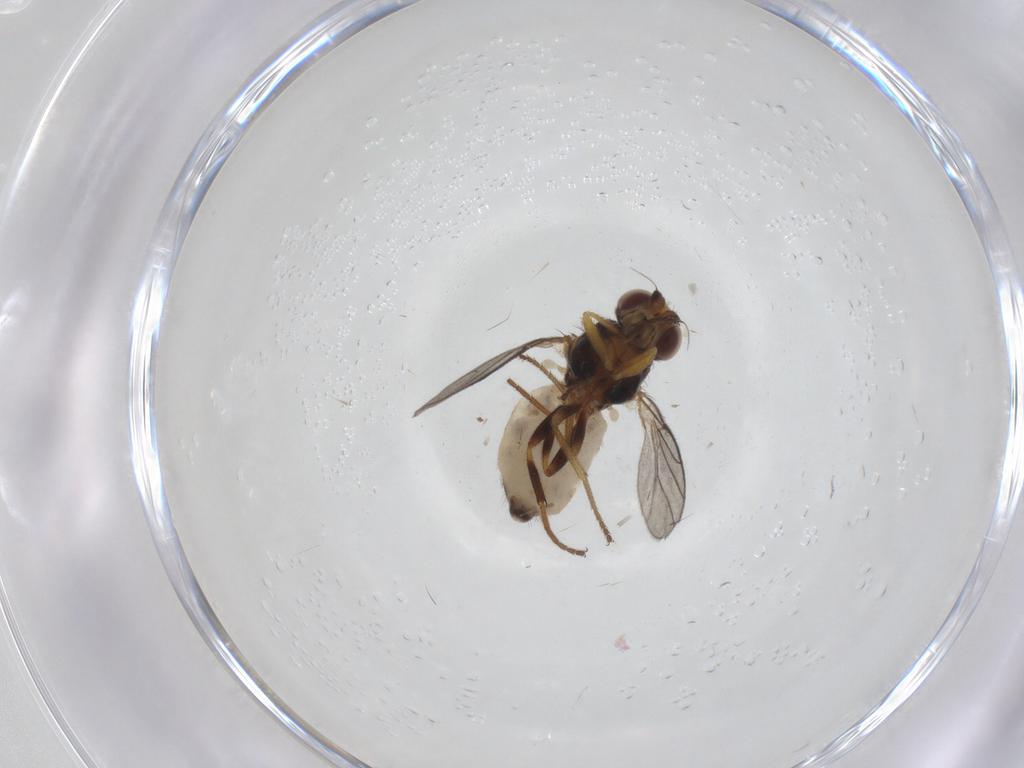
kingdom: Animalia
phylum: Arthropoda
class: Insecta
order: Diptera
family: Chloropidae
